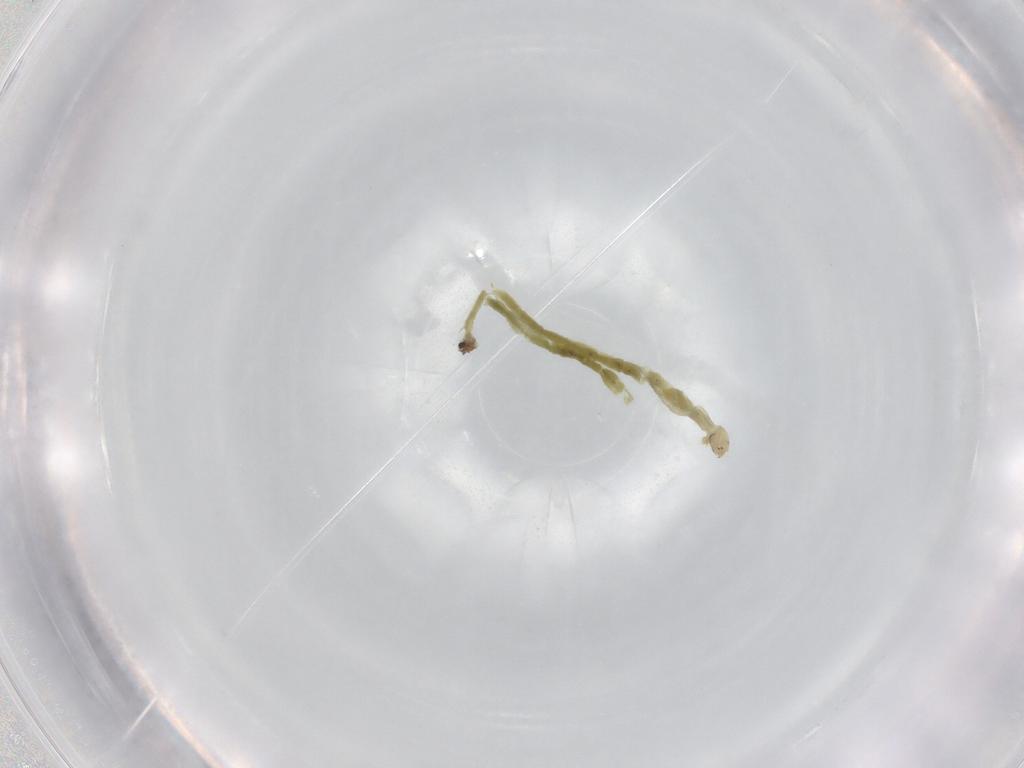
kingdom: Animalia
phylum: Arthropoda
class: Insecta
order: Diptera
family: Chironomidae
